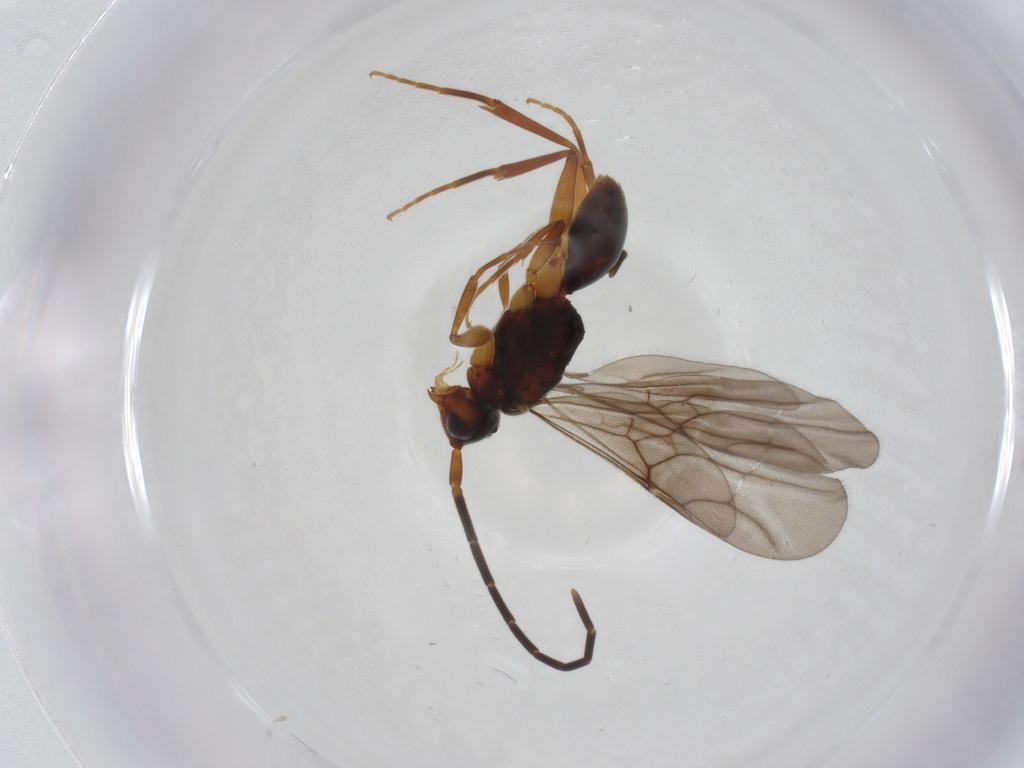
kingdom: Animalia
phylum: Arthropoda
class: Insecta
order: Hymenoptera
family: Embolemidae
